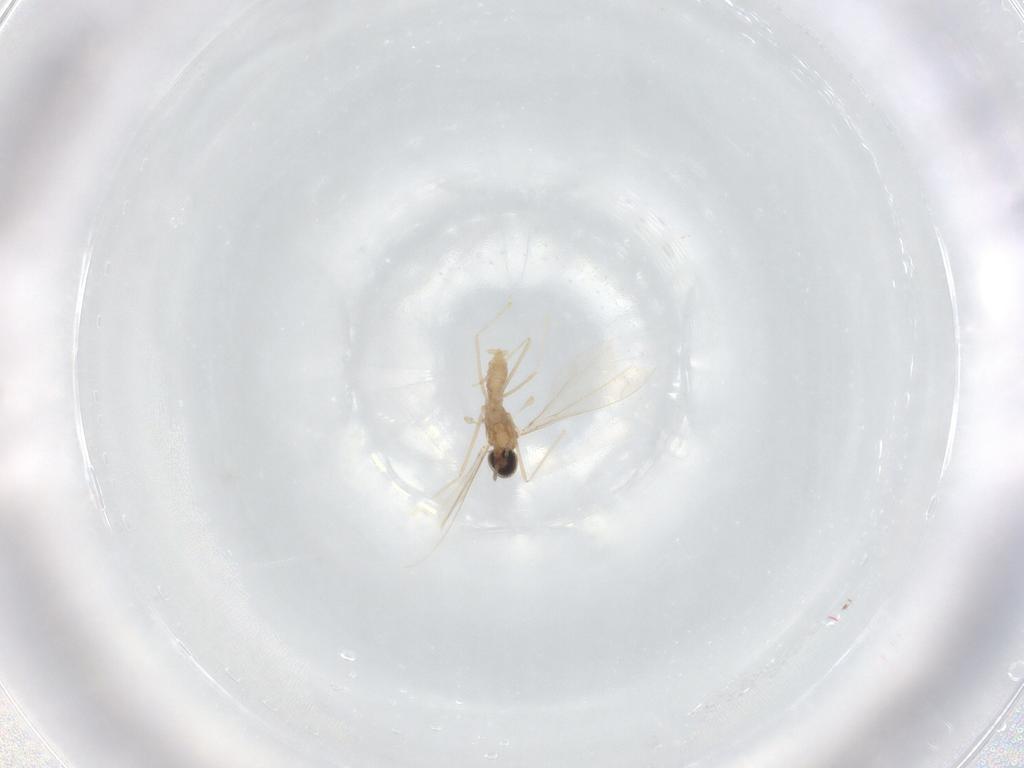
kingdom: Animalia
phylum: Arthropoda
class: Insecta
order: Diptera
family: Cecidomyiidae
